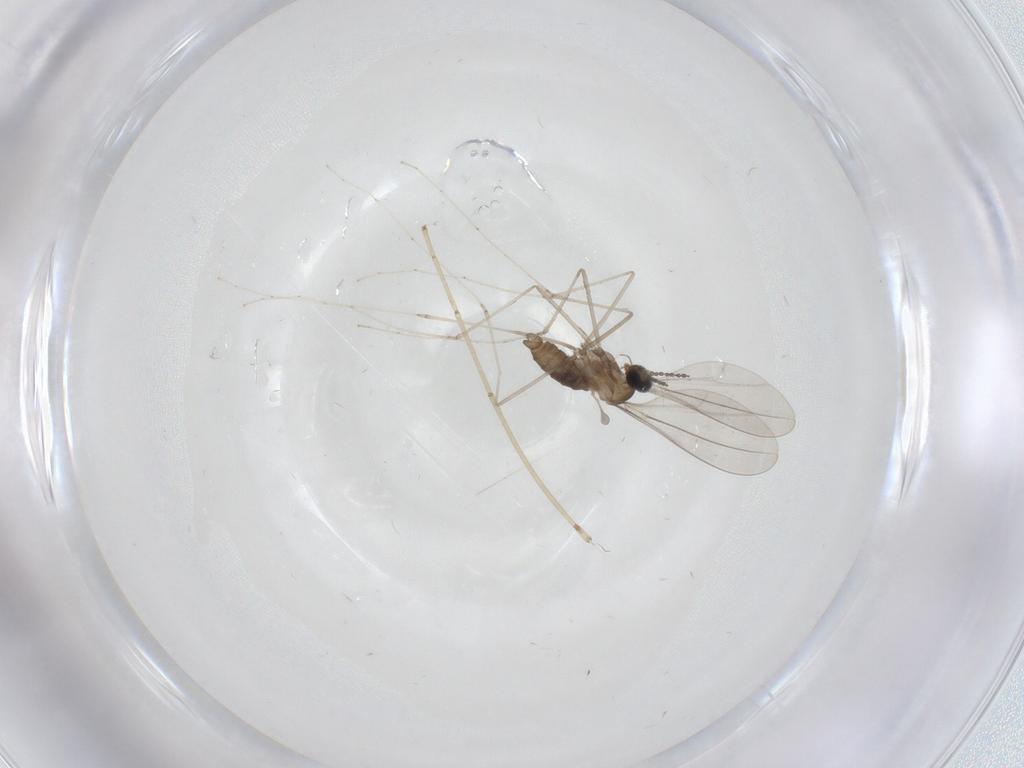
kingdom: Animalia
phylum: Arthropoda
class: Insecta
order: Diptera
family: Cecidomyiidae
